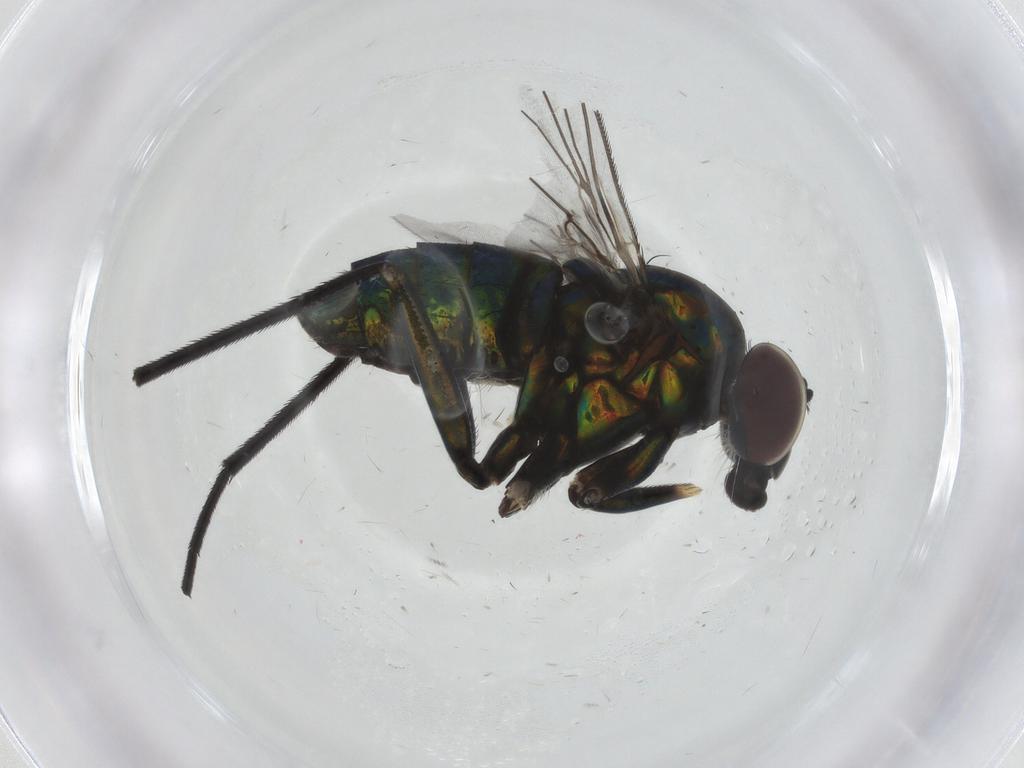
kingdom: Animalia
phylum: Arthropoda
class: Insecta
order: Diptera
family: Dolichopodidae
